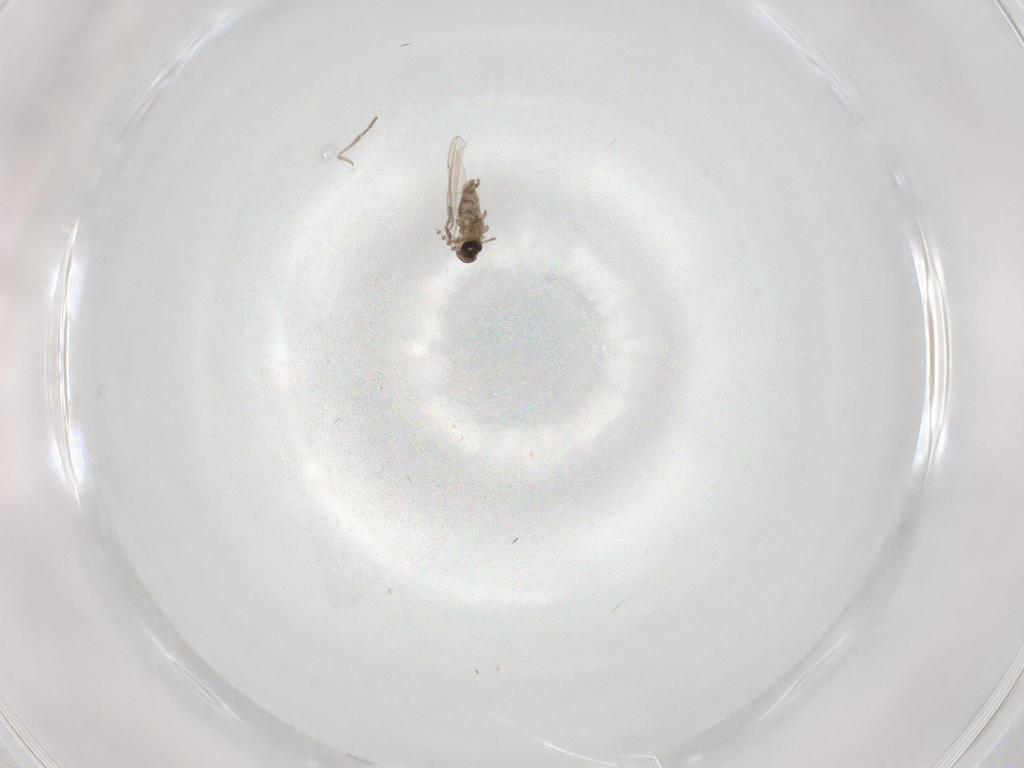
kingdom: Animalia
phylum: Arthropoda
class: Insecta
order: Diptera
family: Psychodidae
